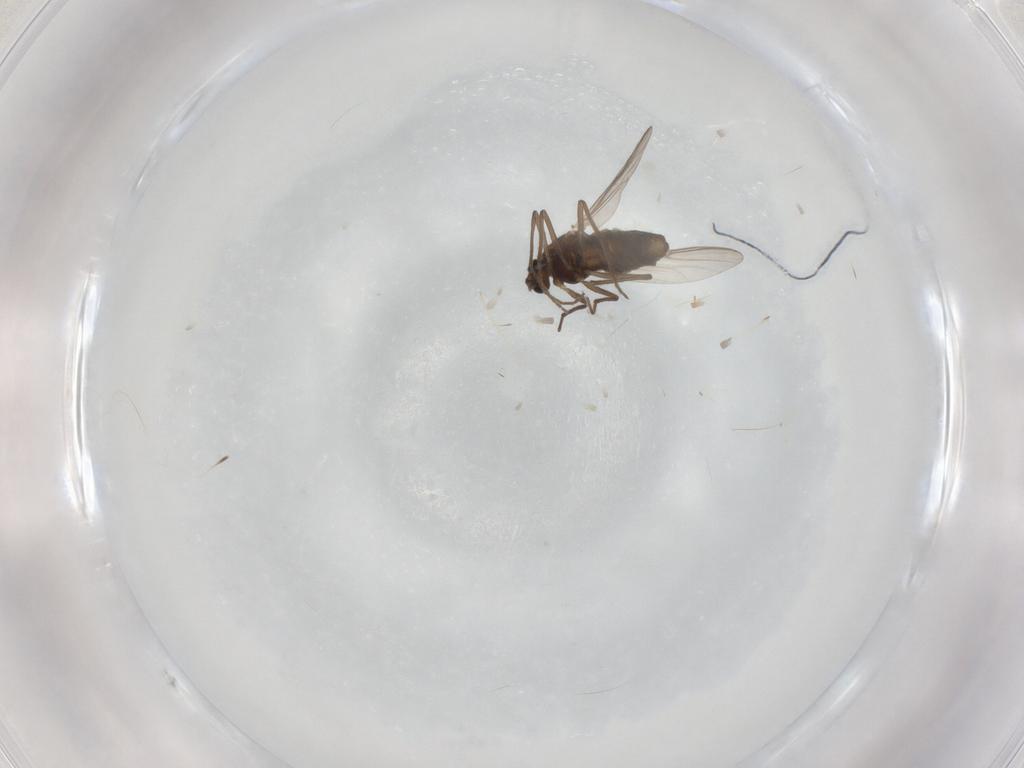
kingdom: Animalia
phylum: Arthropoda
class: Insecta
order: Diptera
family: Chironomidae
